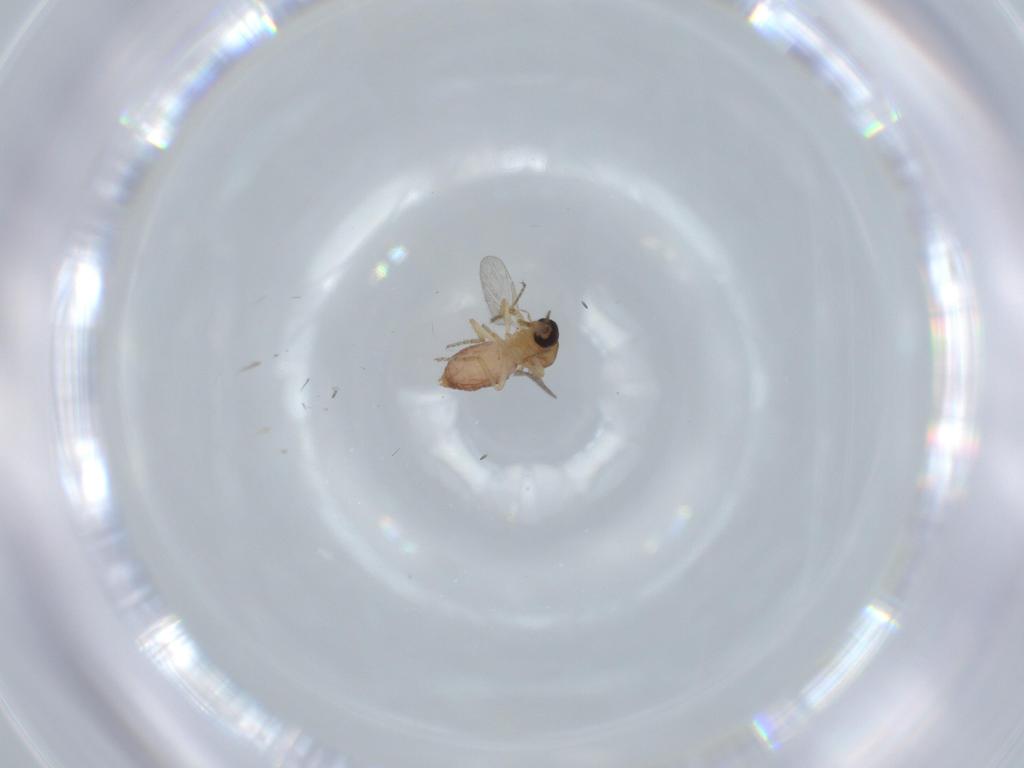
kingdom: Animalia
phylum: Arthropoda
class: Insecta
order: Diptera
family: Ceratopogonidae
